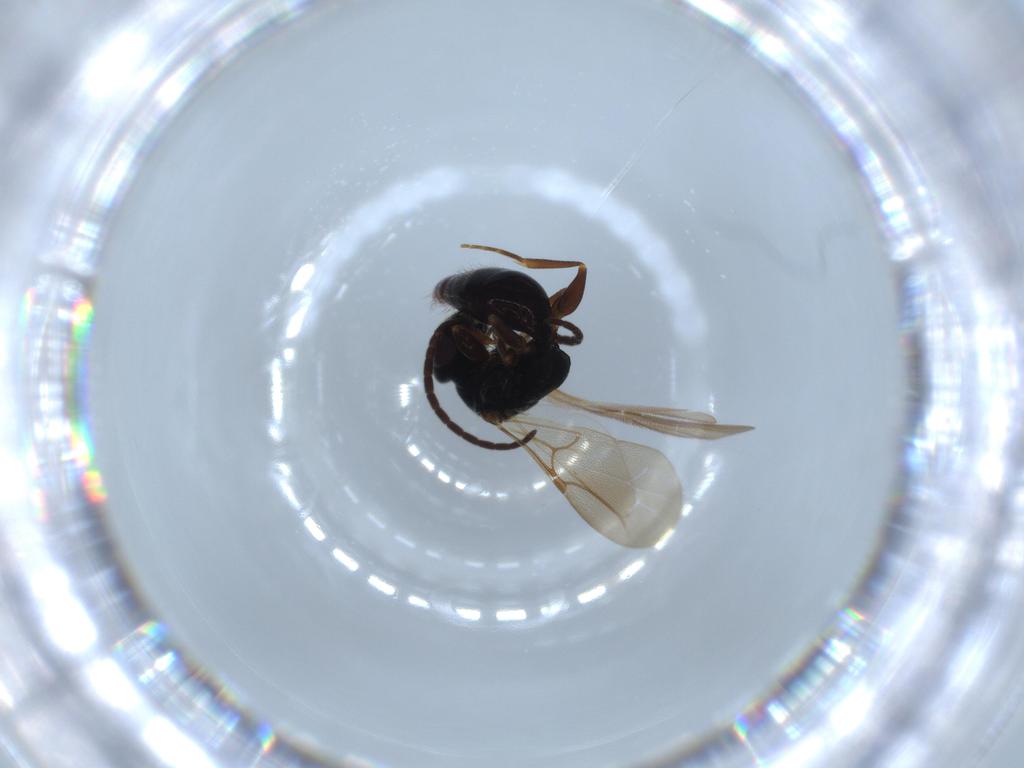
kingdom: Animalia
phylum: Arthropoda
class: Insecta
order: Hymenoptera
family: Bethylidae
